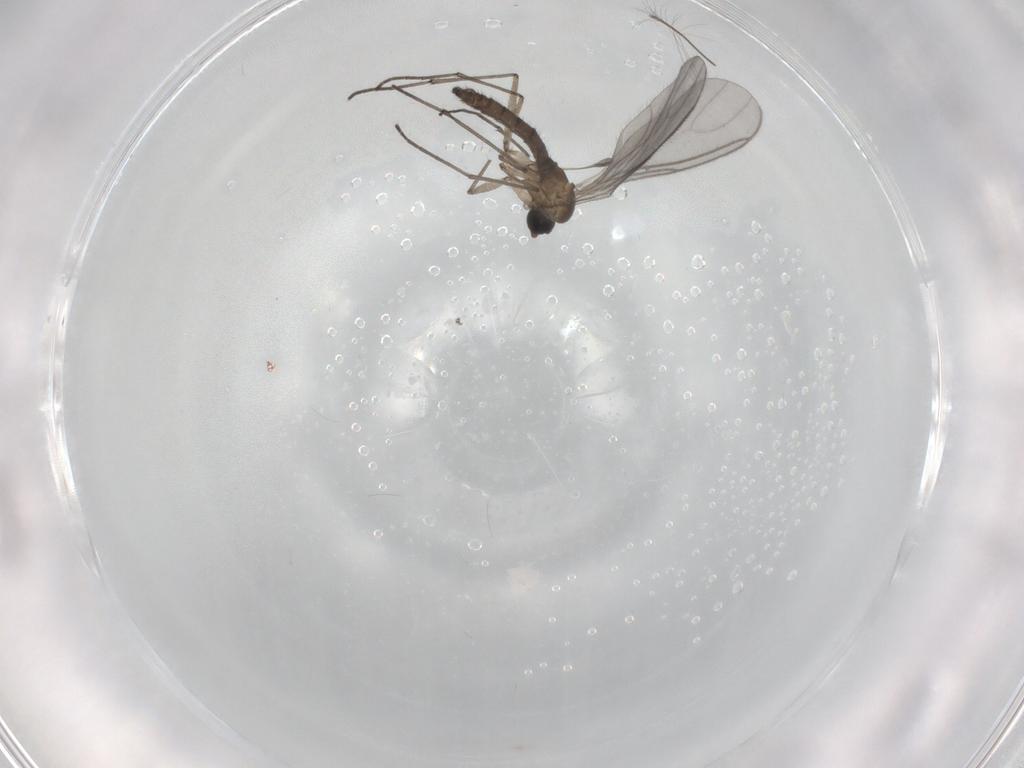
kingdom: Animalia
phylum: Arthropoda
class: Insecta
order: Diptera
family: Sciaridae
